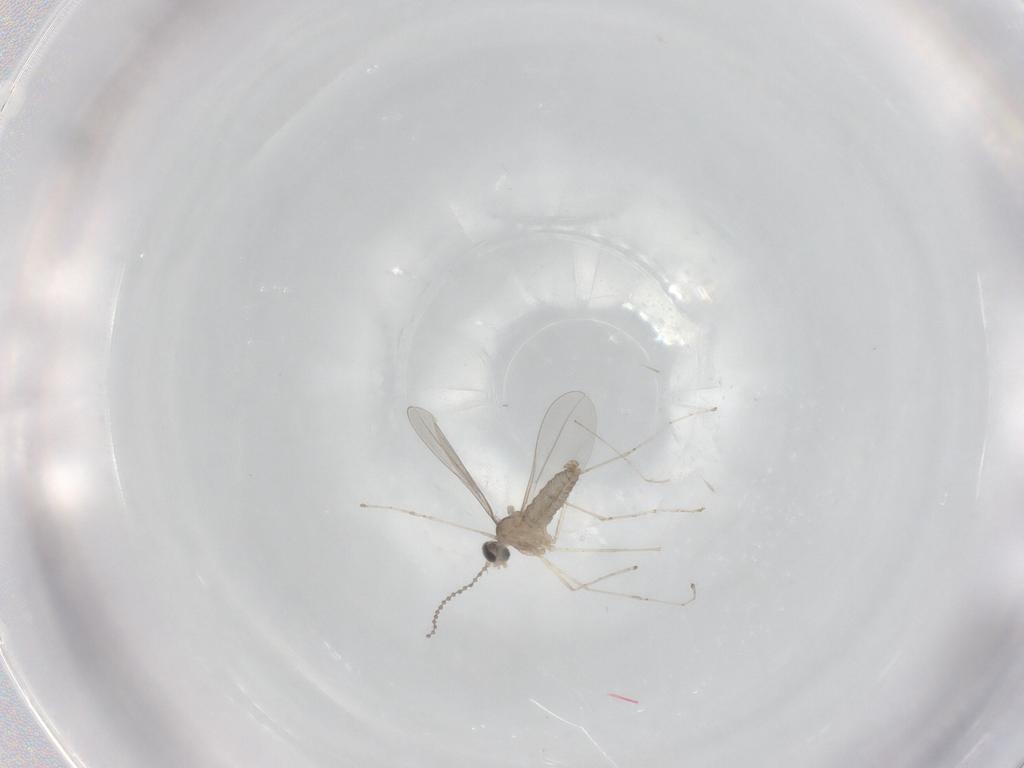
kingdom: Animalia
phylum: Arthropoda
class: Insecta
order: Diptera
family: Cecidomyiidae
